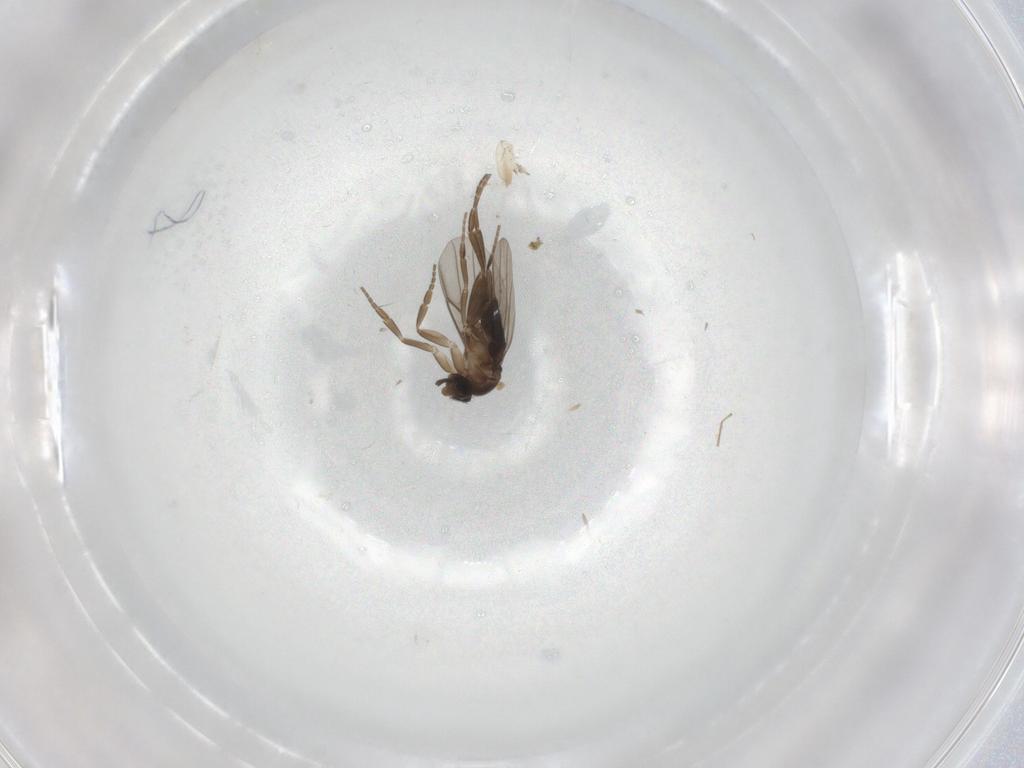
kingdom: Animalia
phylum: Arthropoda
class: Insecta
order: Diptera
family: Phoridae
